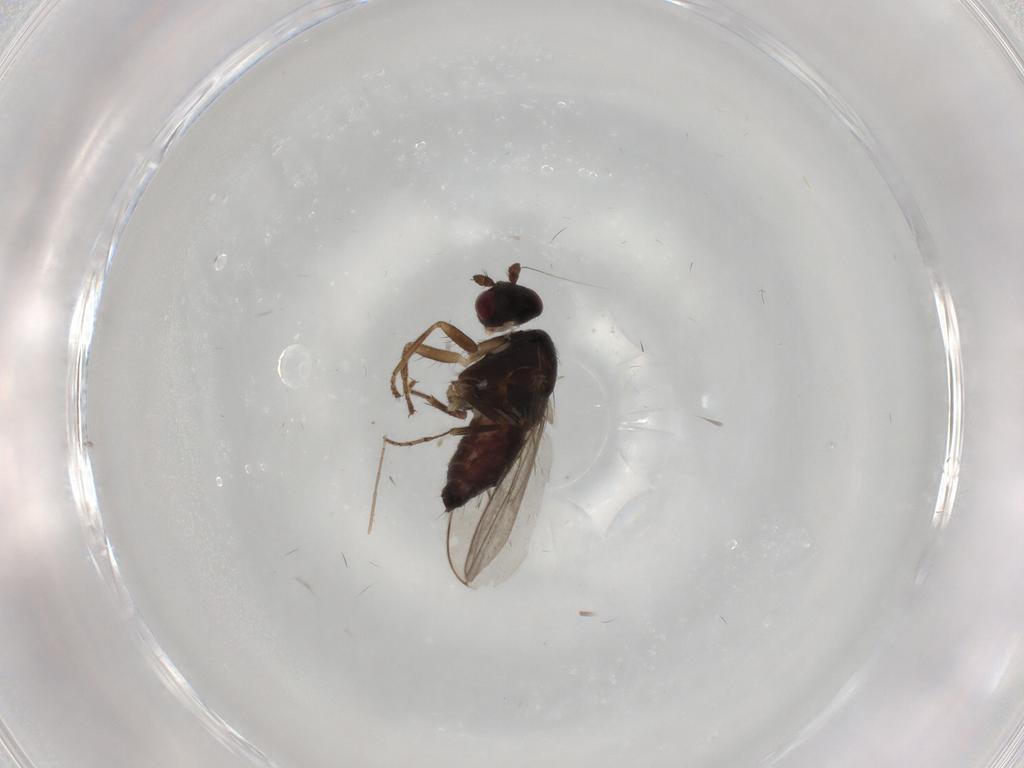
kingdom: Animalia
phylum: Arthropoda
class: Insecta
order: Diptera
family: Sphaeroceridae
